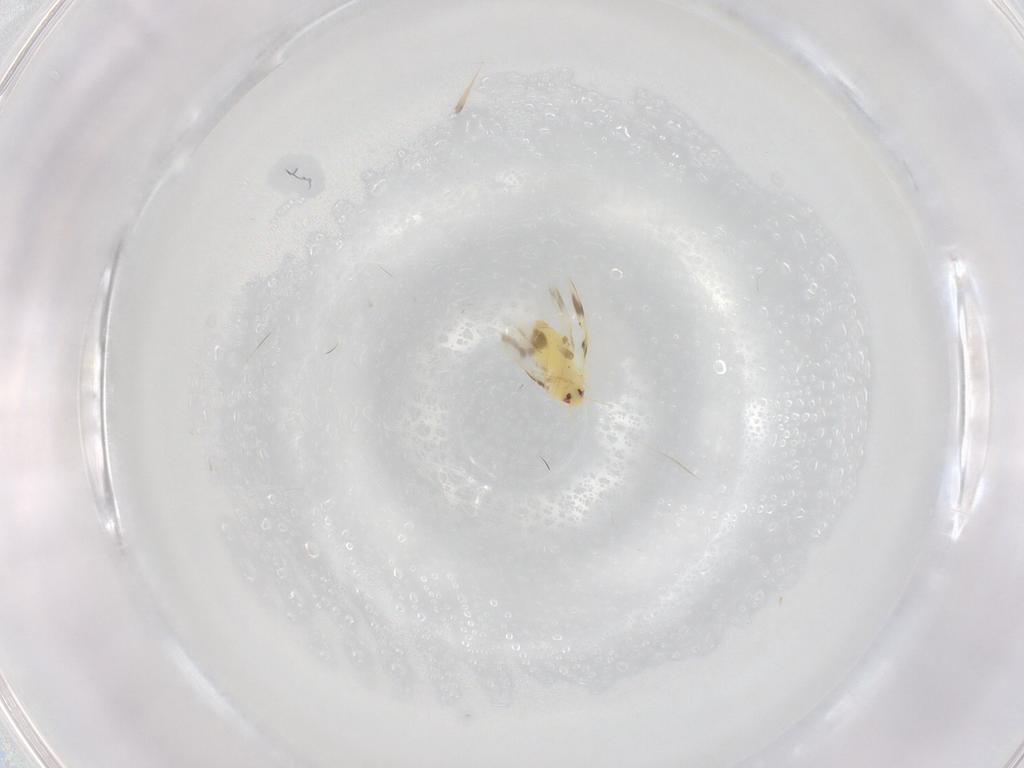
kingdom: Animalia
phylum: Arthropoda
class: Insecta
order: Hemiptera
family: Aleyrodidae
